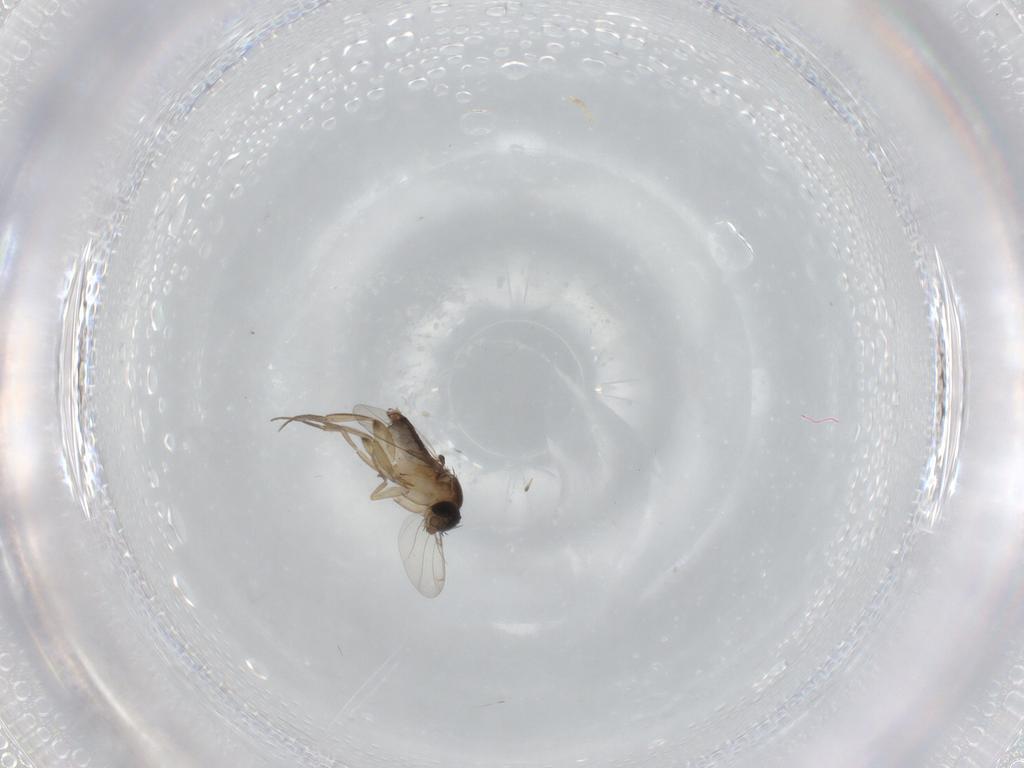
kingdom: Animalia
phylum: Arthropoda
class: Insecta
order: Diptera
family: Phoridae
